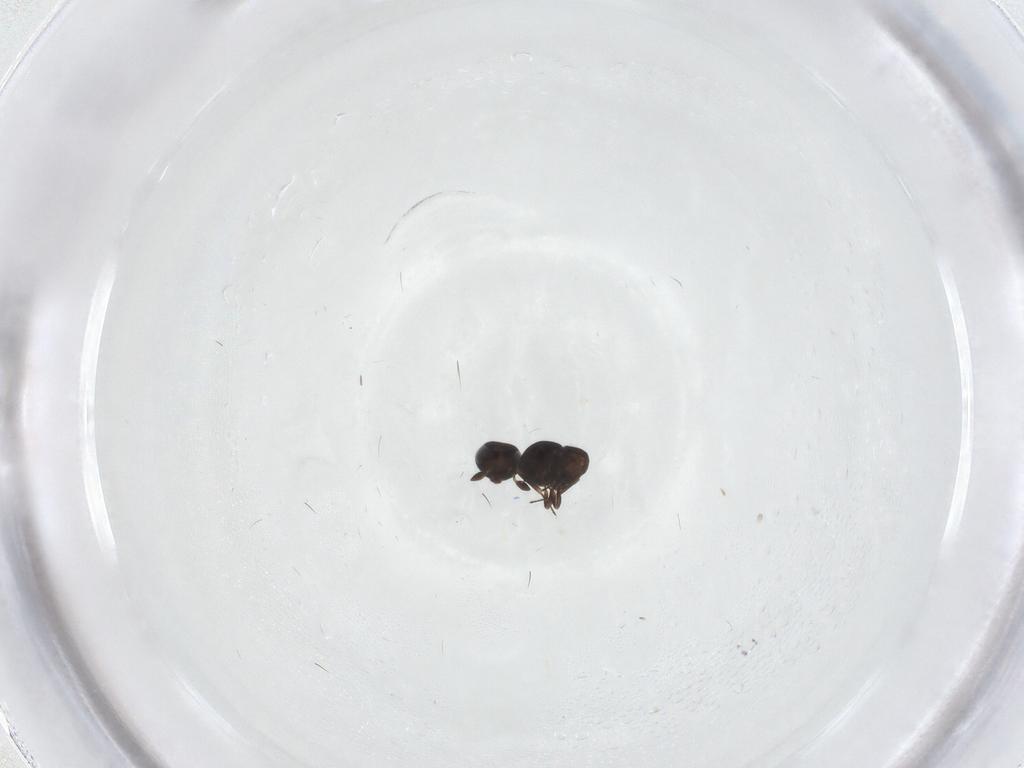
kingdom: Animalia
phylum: Arthropoda
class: Insecta
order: Hymenoptera
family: Scelionidae
